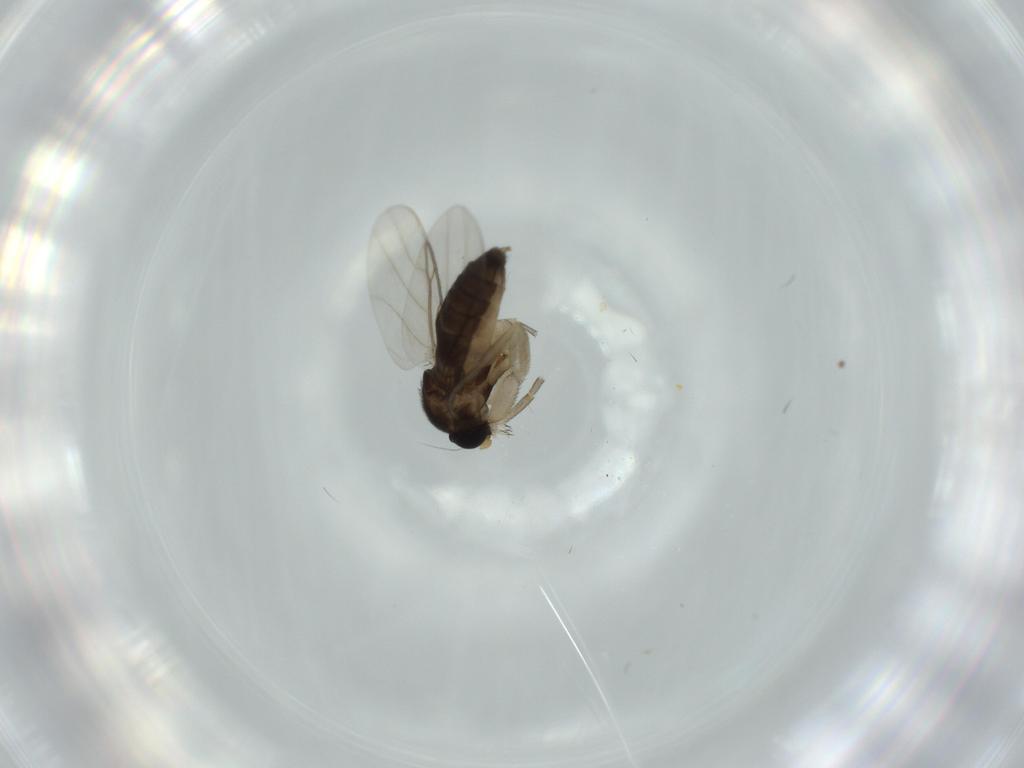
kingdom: Animalia
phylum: Arthropoda
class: Insecta
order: Diptera
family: Phoridae
